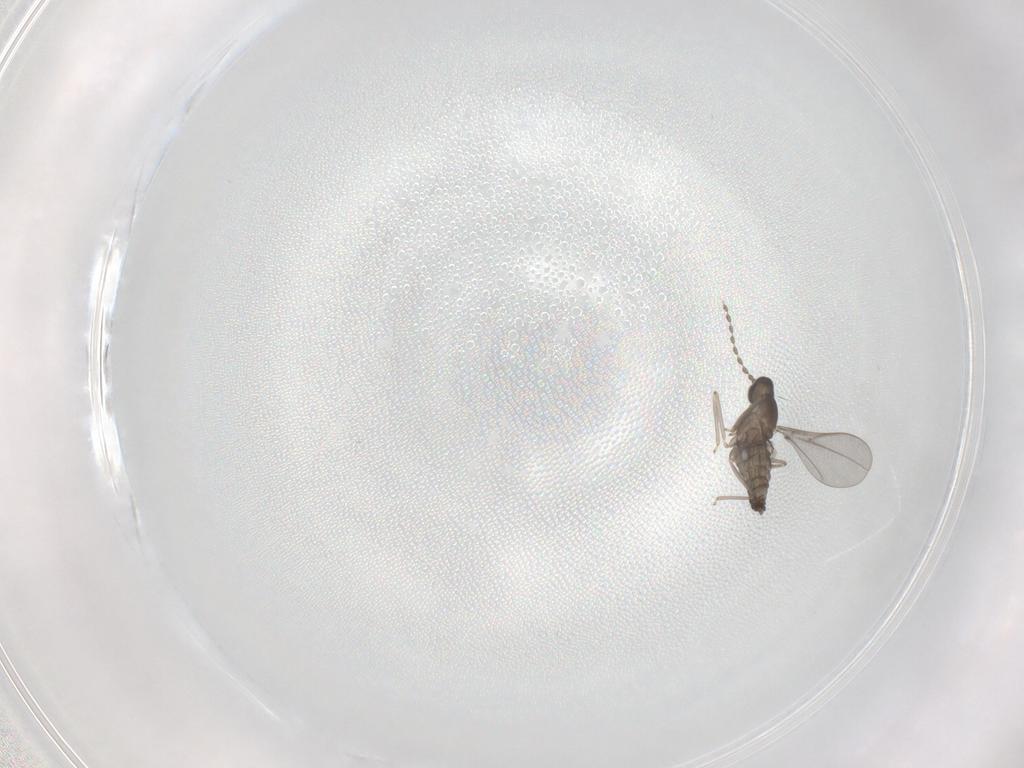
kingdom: Animalia
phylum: Arthropoda
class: Insecta
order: Diptera
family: Cecidomyiidae
